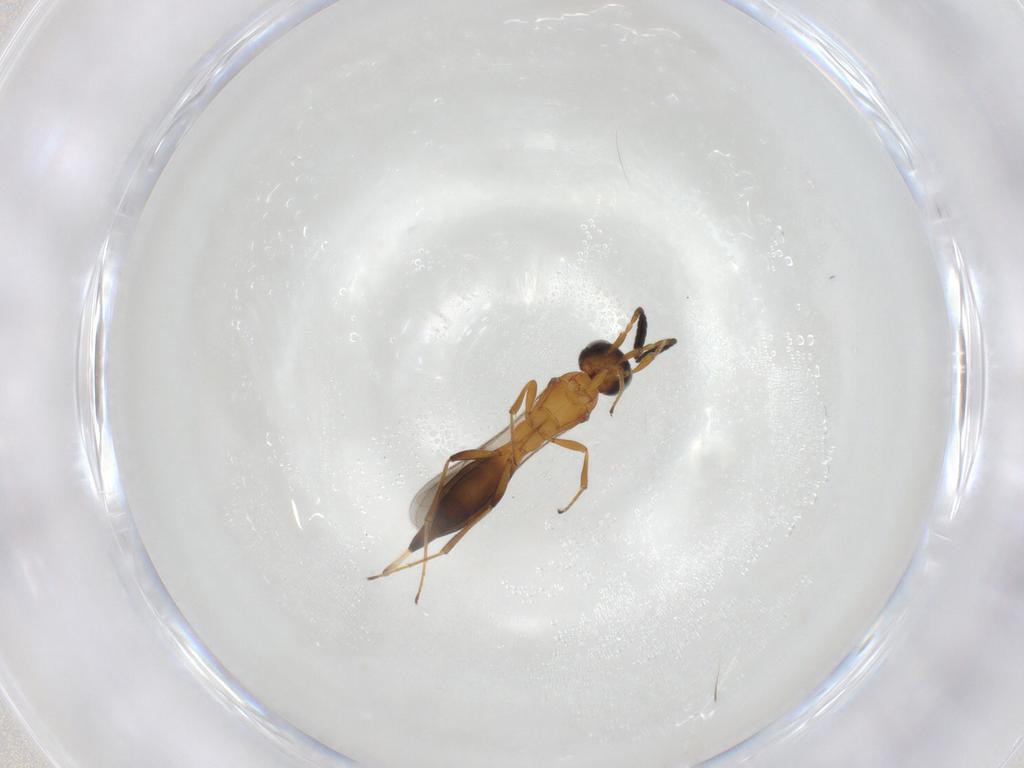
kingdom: Animalia
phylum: Arthropoda
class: Insecta
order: Hymenoptera
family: Scelionidae
